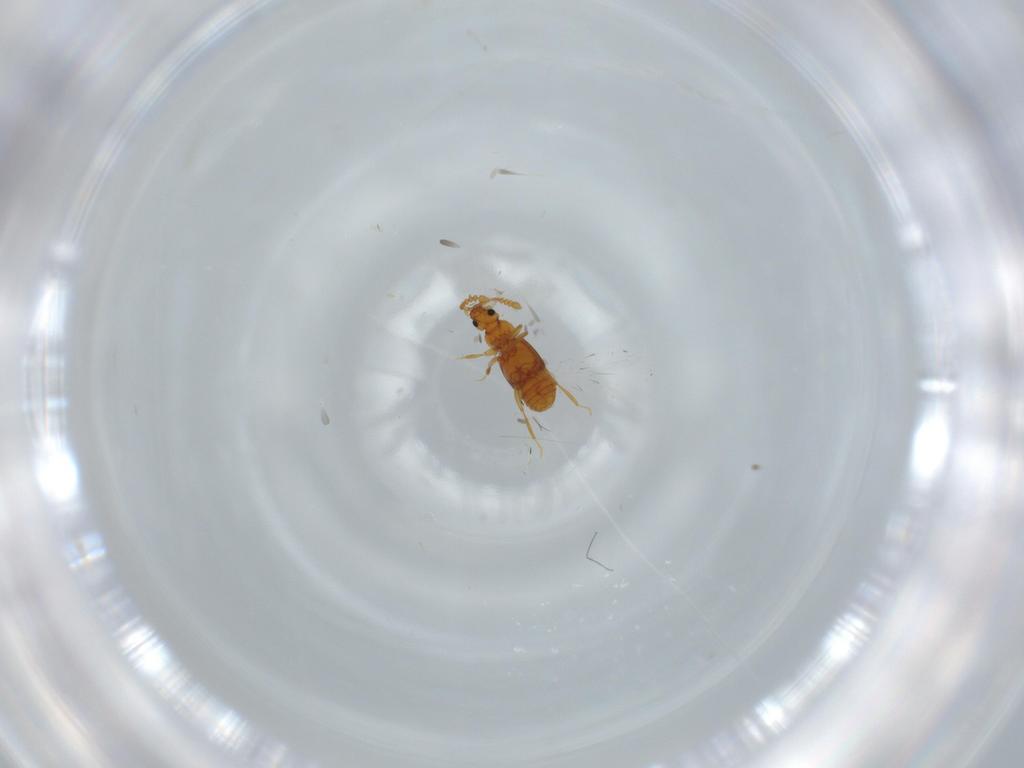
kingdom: Animalia
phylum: Arthropoda
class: Insecta
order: Coleoptera
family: Staphylinidae
